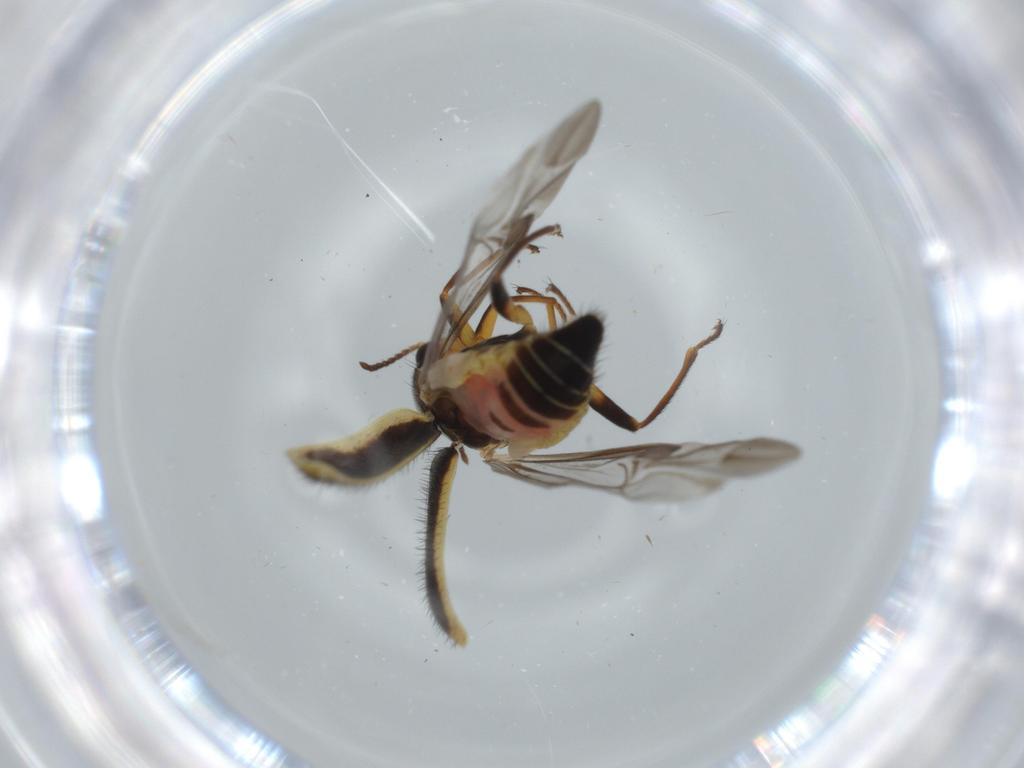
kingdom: Animalia
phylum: Arthropoda
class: Insecta
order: Coleoptera
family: Melyridae
